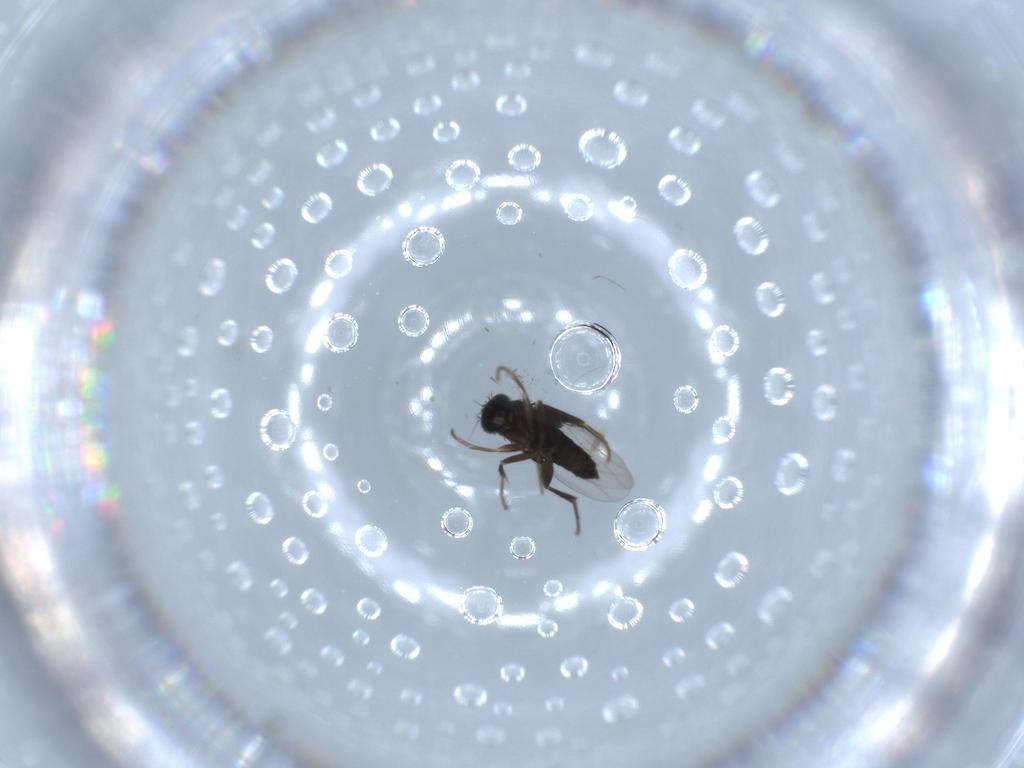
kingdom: Animalia
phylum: Arthropoda
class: Insecta
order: Diptera
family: Phoridae
